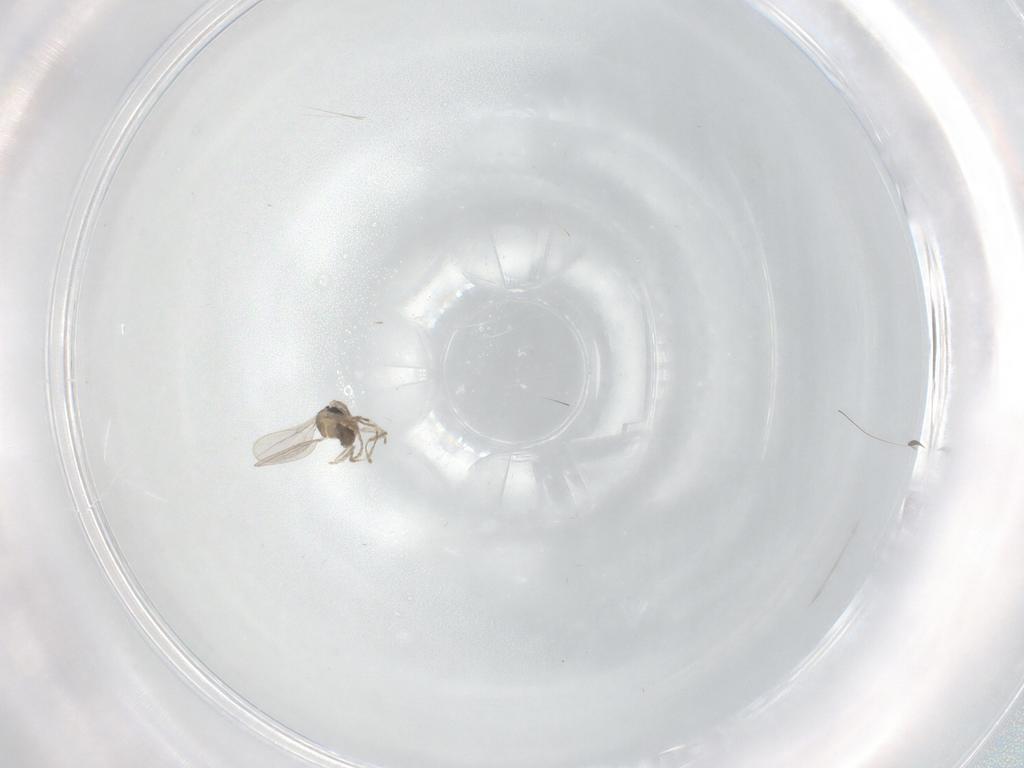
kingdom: Animalia
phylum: Arthropoda
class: Insecta
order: Diptera
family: Cecidomyiidae
